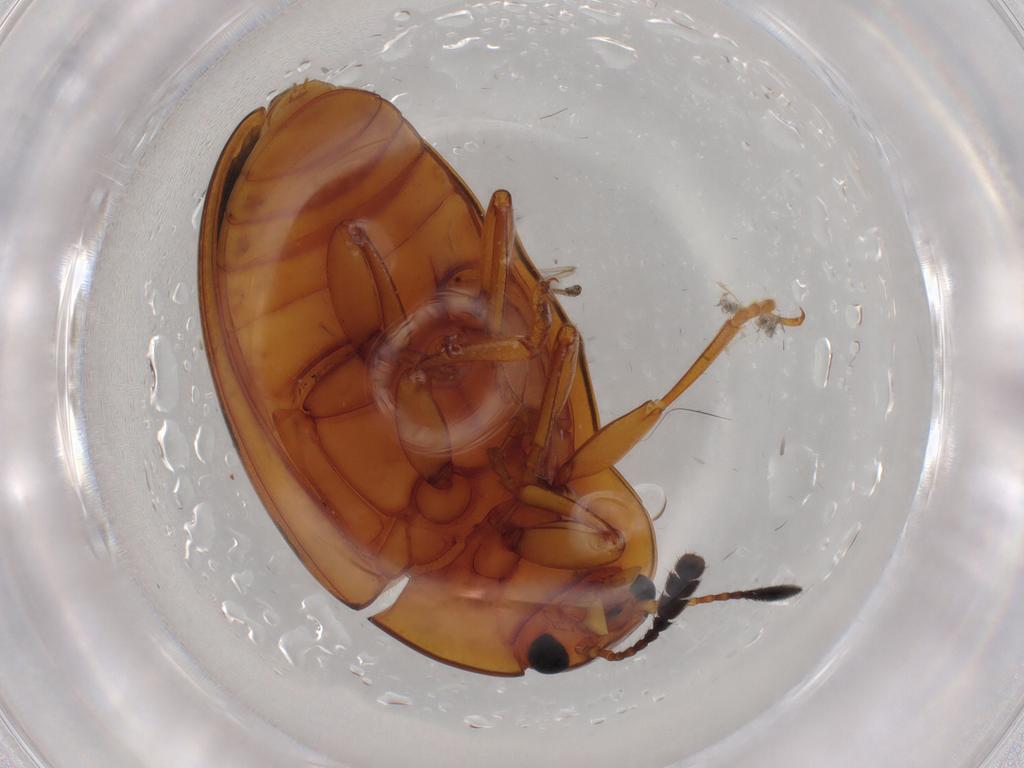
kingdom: Animalia
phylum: Arthropoda
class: Insecta
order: Coleoptera
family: Erotylidae
